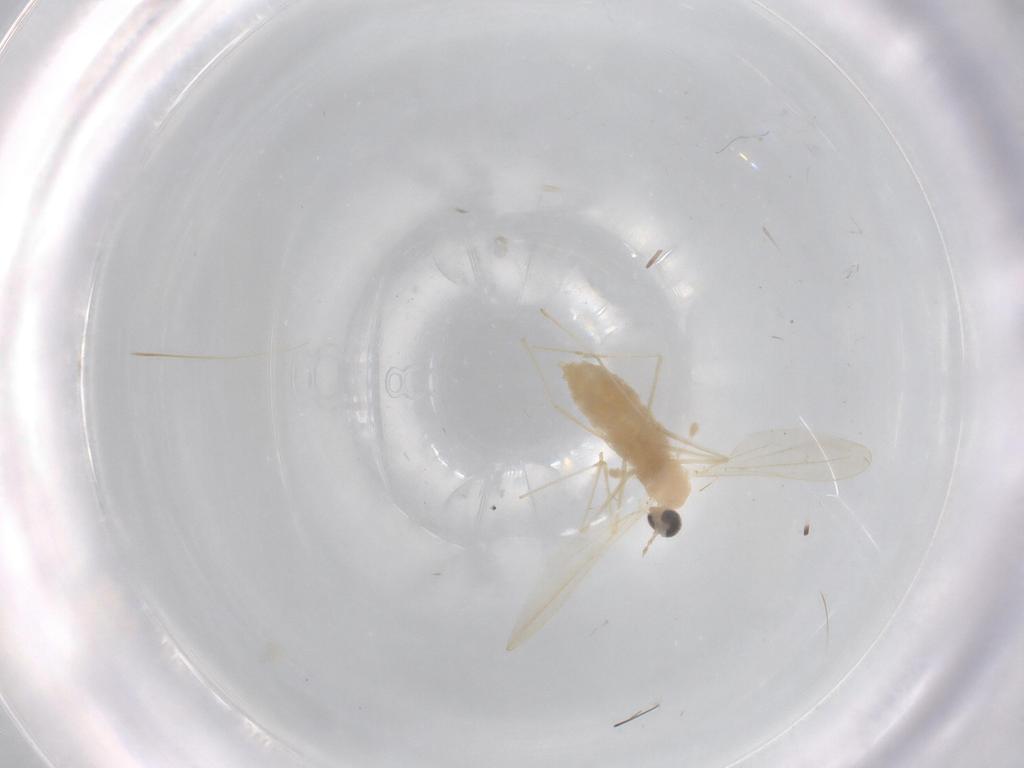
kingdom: Animalia
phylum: Arthropoda
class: Insecta
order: Diptera
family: Cecidomyiidae
